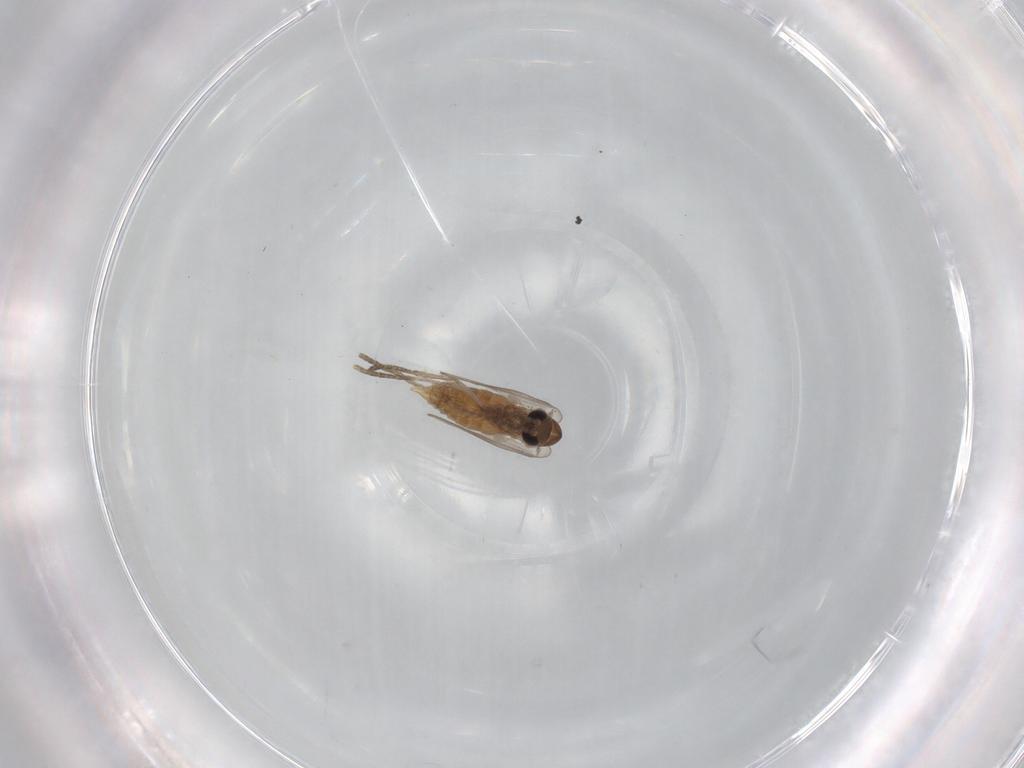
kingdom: Animalia
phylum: Arthropoda
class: Insecta
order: Diptera
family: Psychodidae
